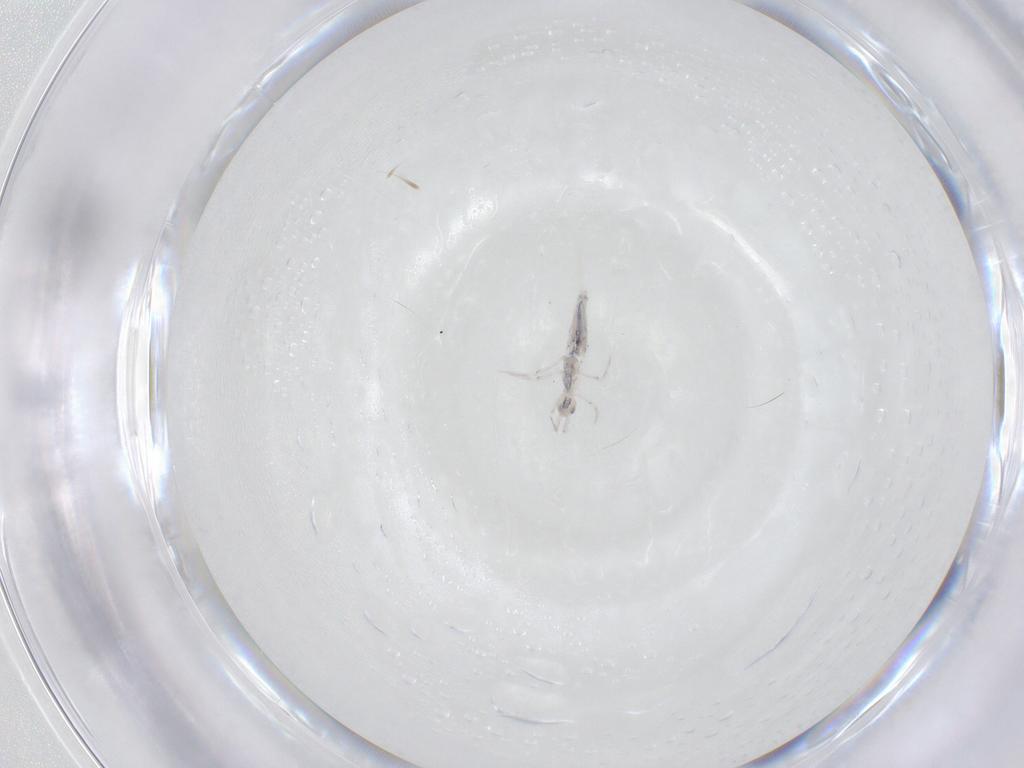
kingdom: Animalia
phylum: Arthropoda
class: Collembola
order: Entomobryomorpha
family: Entomobryidae
